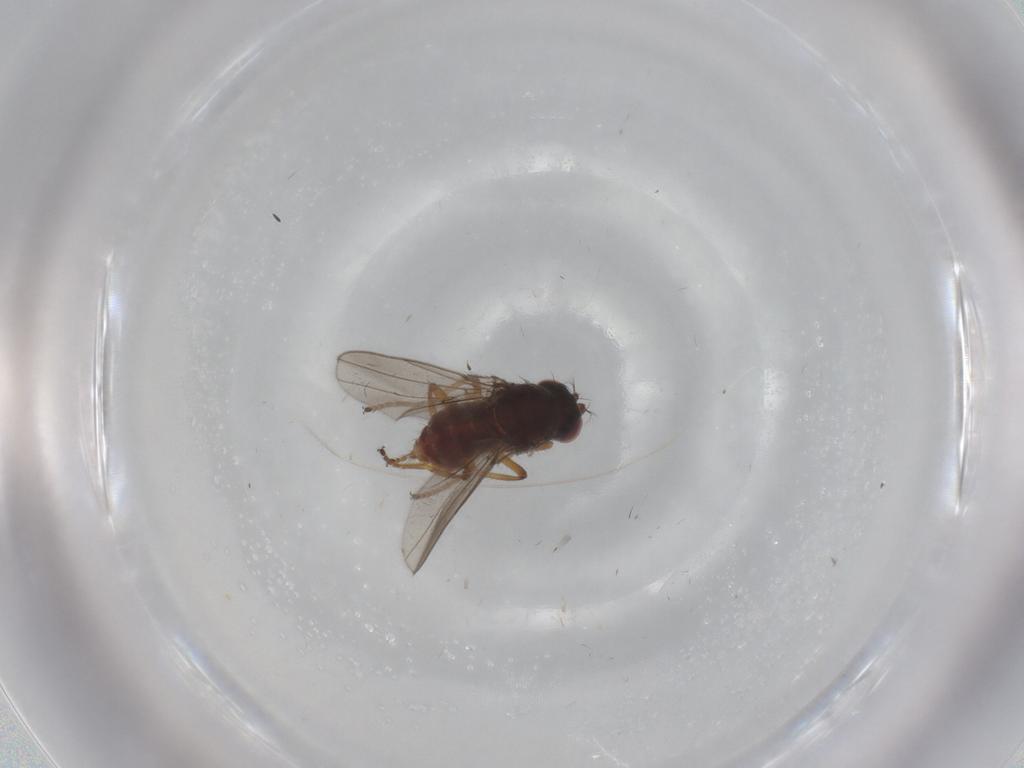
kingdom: Animalia
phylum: Arthropoda
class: Insecta
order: Diptera
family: Ephydridae
